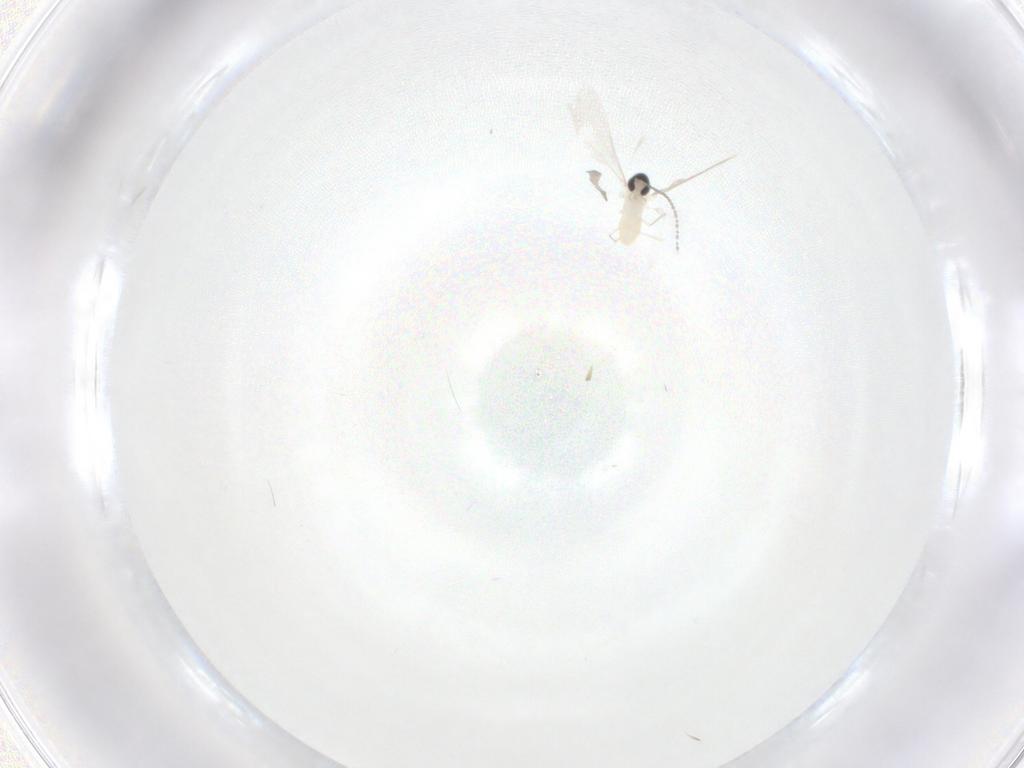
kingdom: Animalia
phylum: Arthropoda
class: Insecta
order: Diptera
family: Cecidomyiidae
